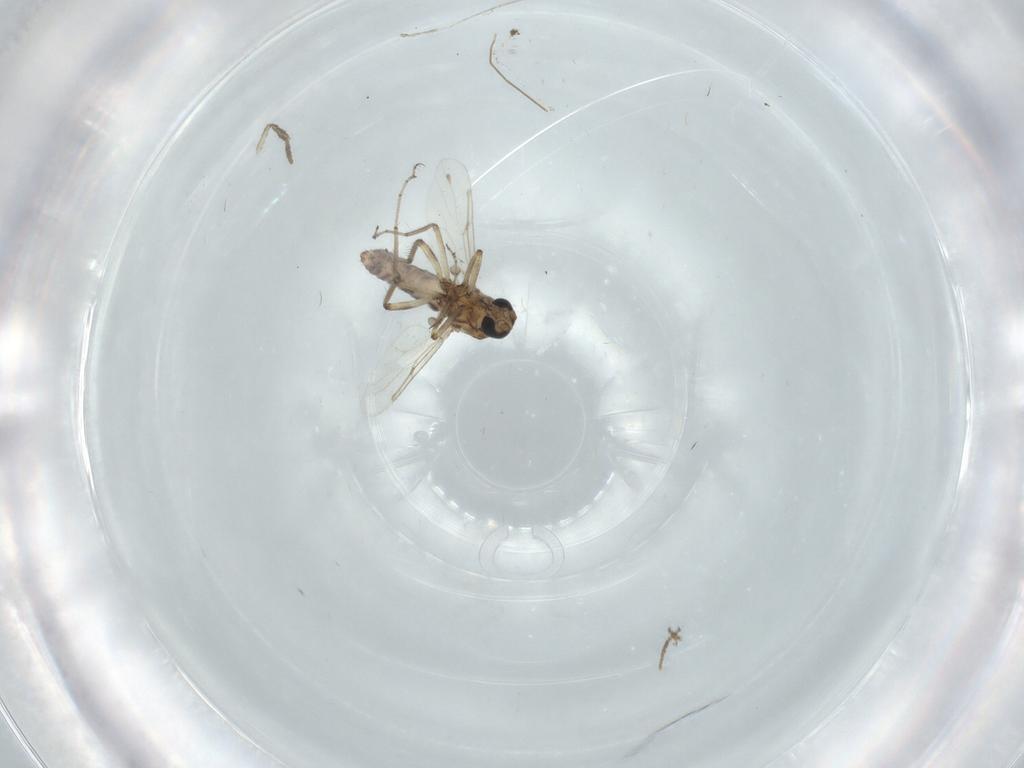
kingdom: Animalia
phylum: Arthropoda
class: Insecta
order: Diptera
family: Ceratopogonidae
